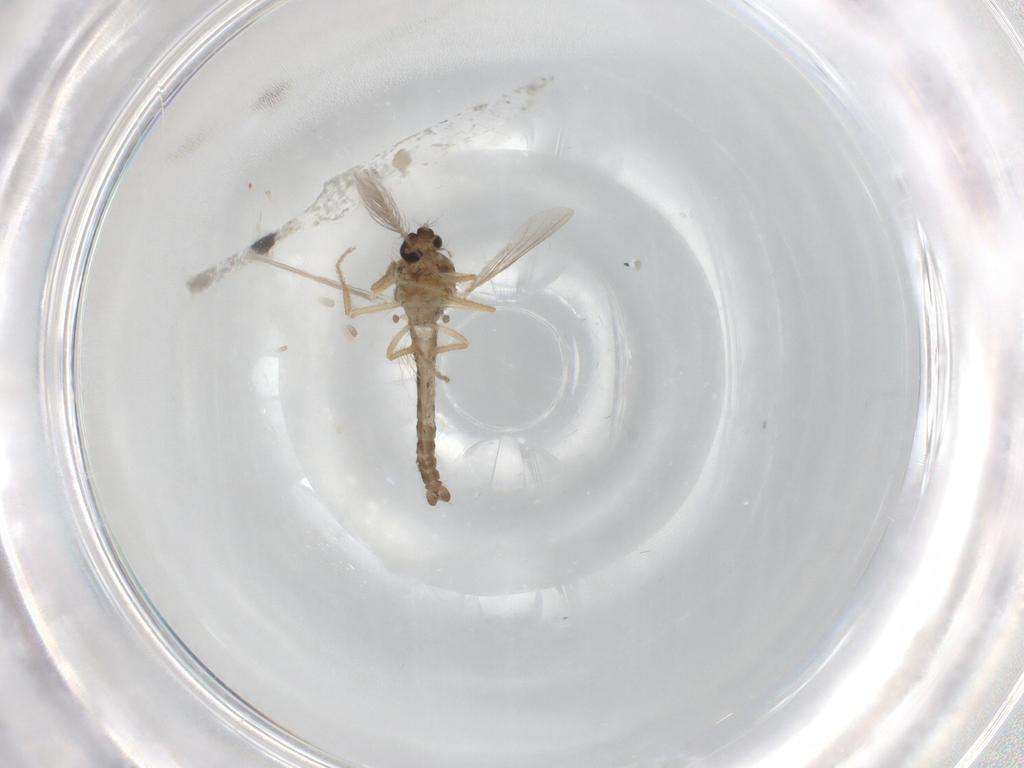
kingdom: Animalia
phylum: Arthropoda
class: Insecta
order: Diptera
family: Ceratopogonidae
